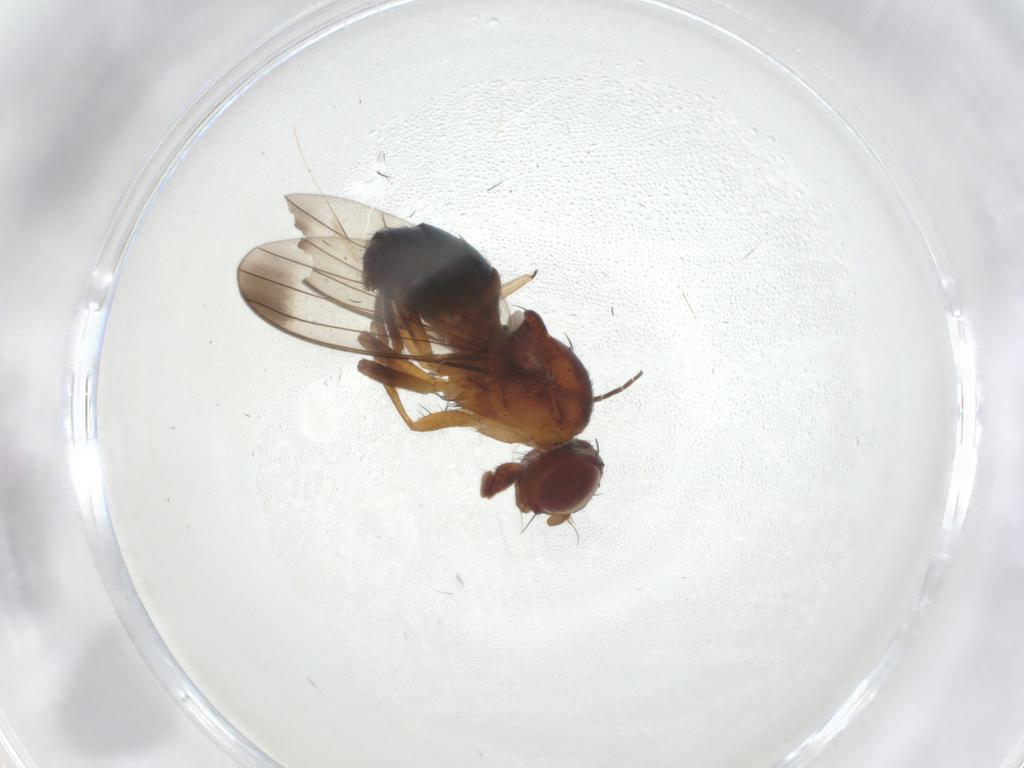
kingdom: Animalia
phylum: Arthropoda
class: Insecta
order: Diptera
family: Piophilidae
